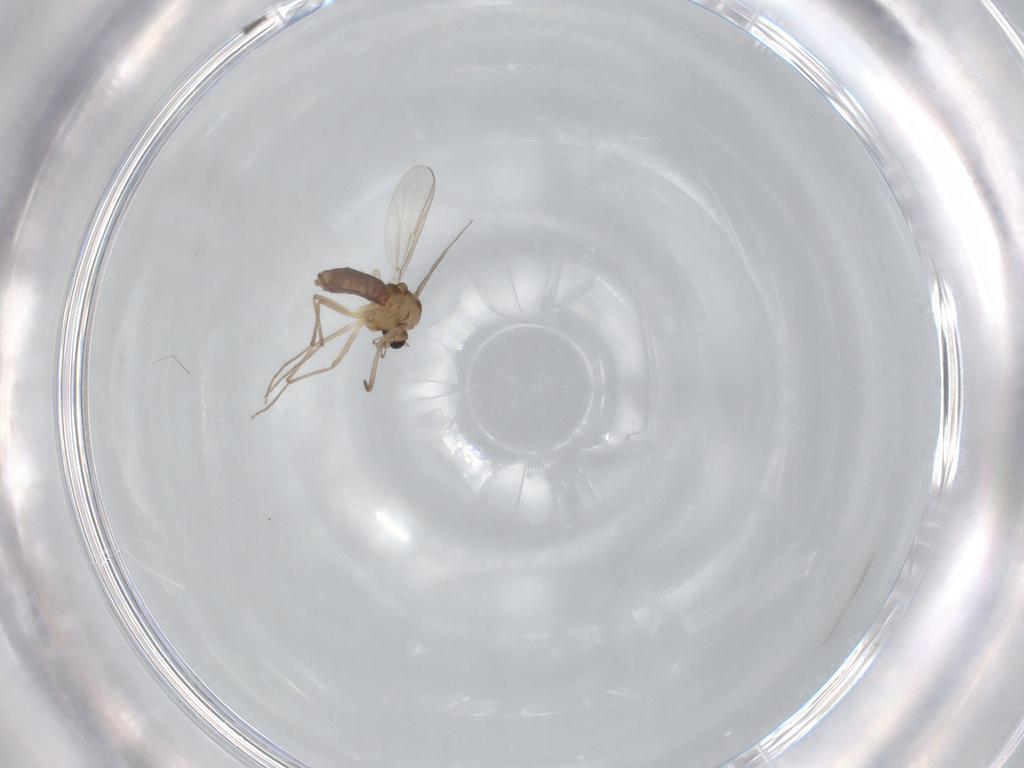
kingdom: Animalia
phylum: Arthropoda
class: Insecta
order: Diptera
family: Chironomidae
